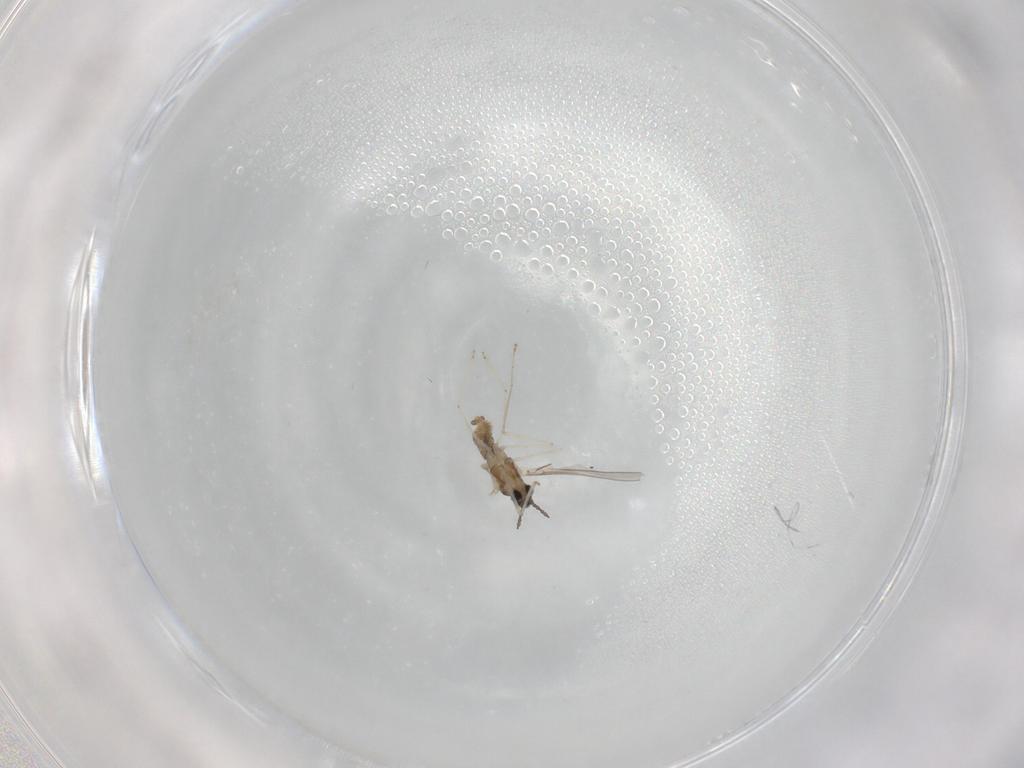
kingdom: Animalia
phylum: Arthropoda
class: Insecta
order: Diptera
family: Cecidomyiidae
